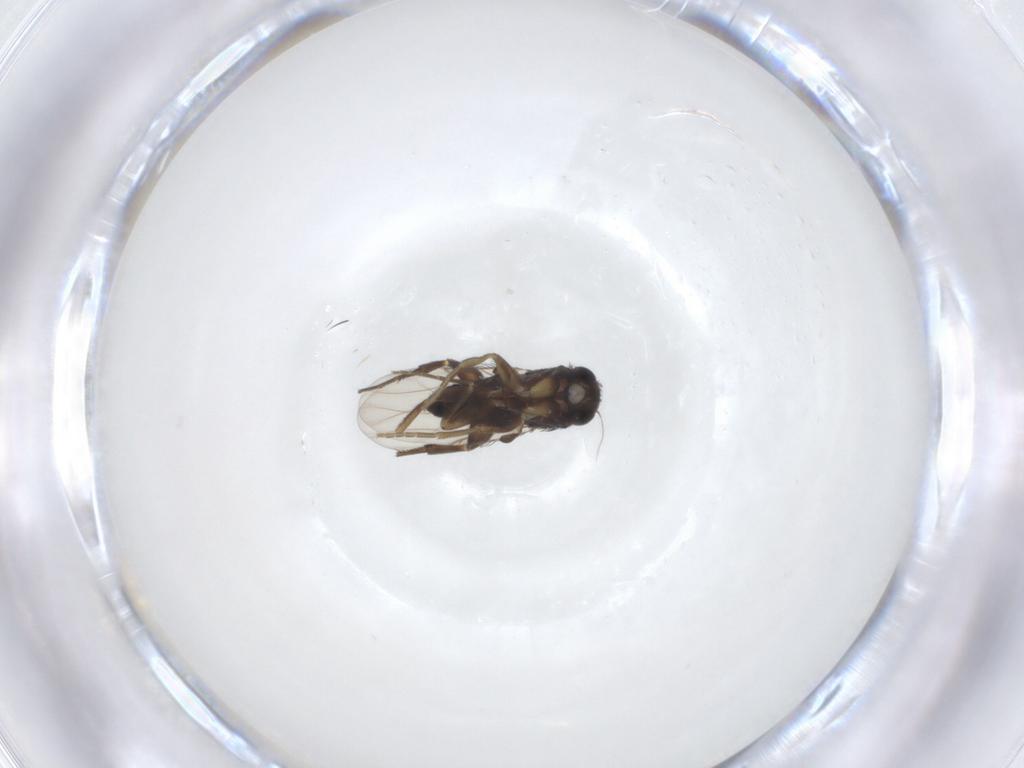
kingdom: Animalia
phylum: Arthropoda
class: Insecta
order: Diptera
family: Phoridae
